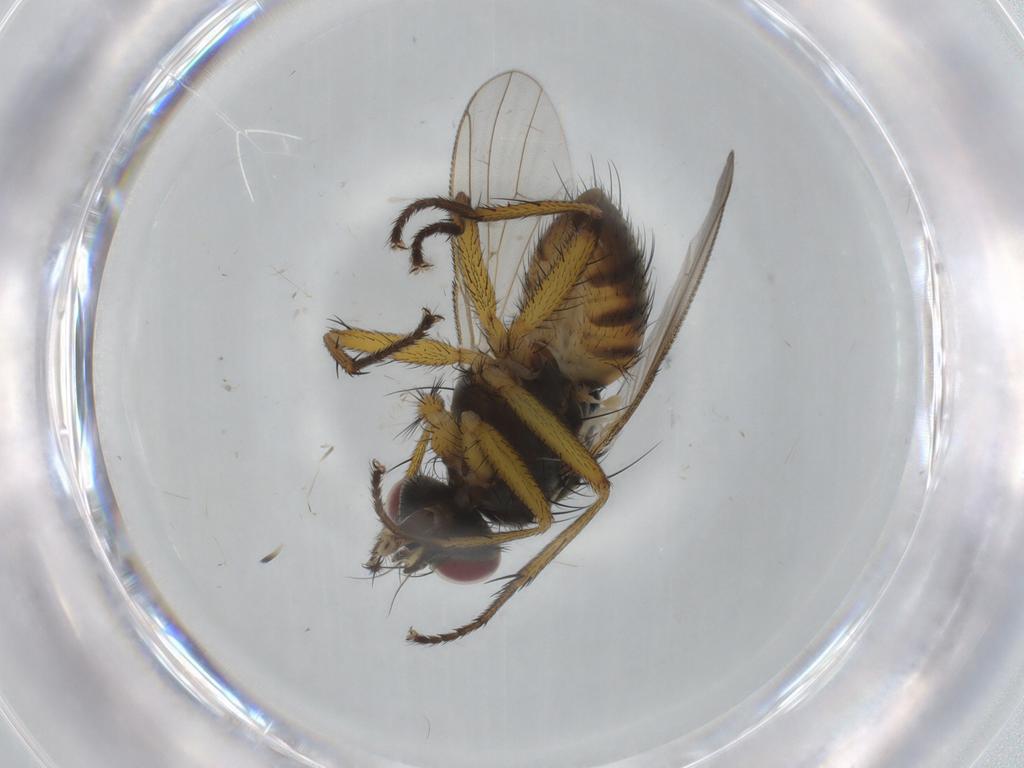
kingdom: Animalia
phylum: Arthropoda
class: Insecta
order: Diptera
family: Muscidae
